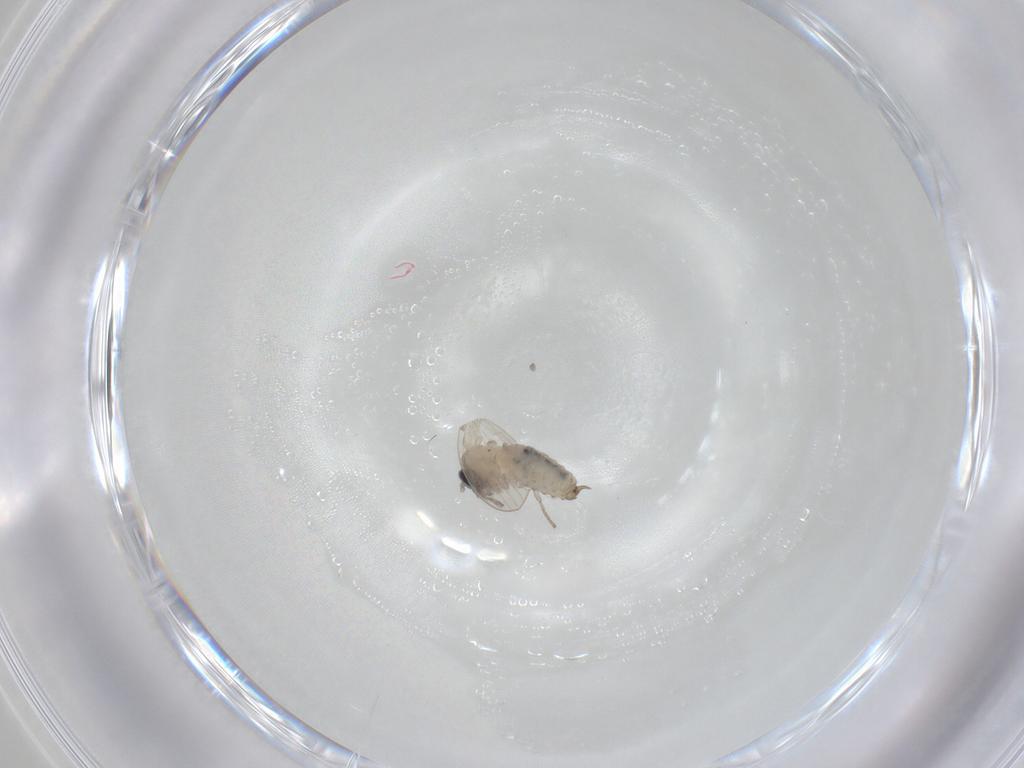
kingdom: Animalia
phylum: Arthropoda
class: Insecta
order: Diptera
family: Psychodidae
